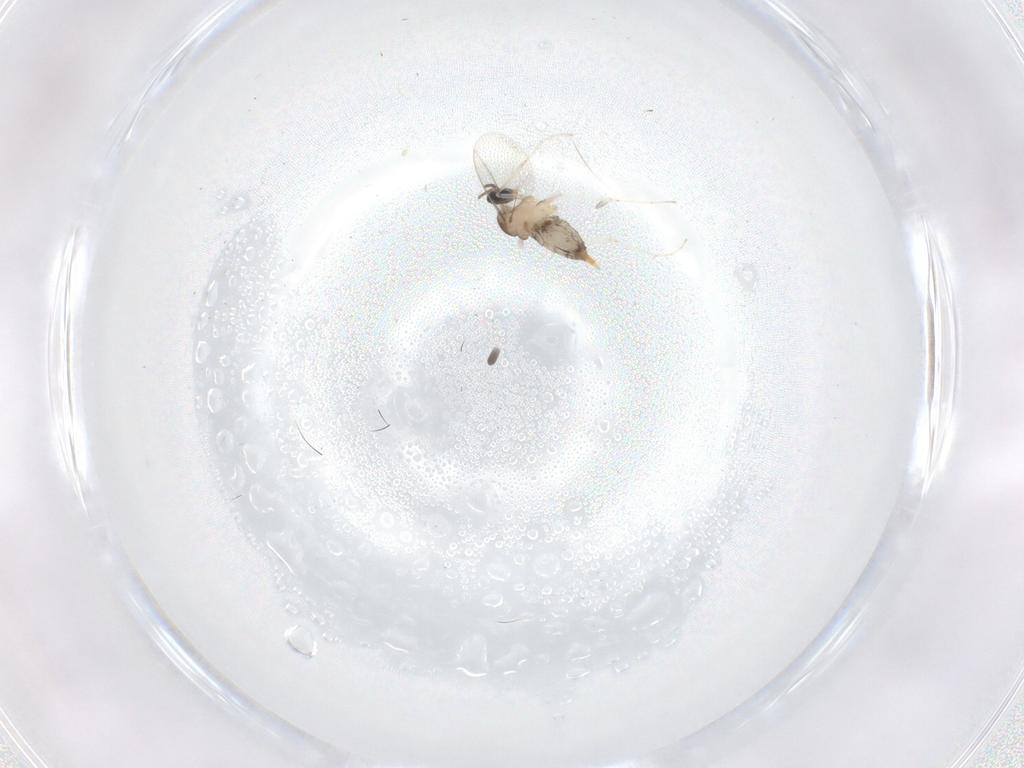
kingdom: Animalia
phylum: Arthropoda
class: Insecta
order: Diptera
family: Cecidomyiidae
